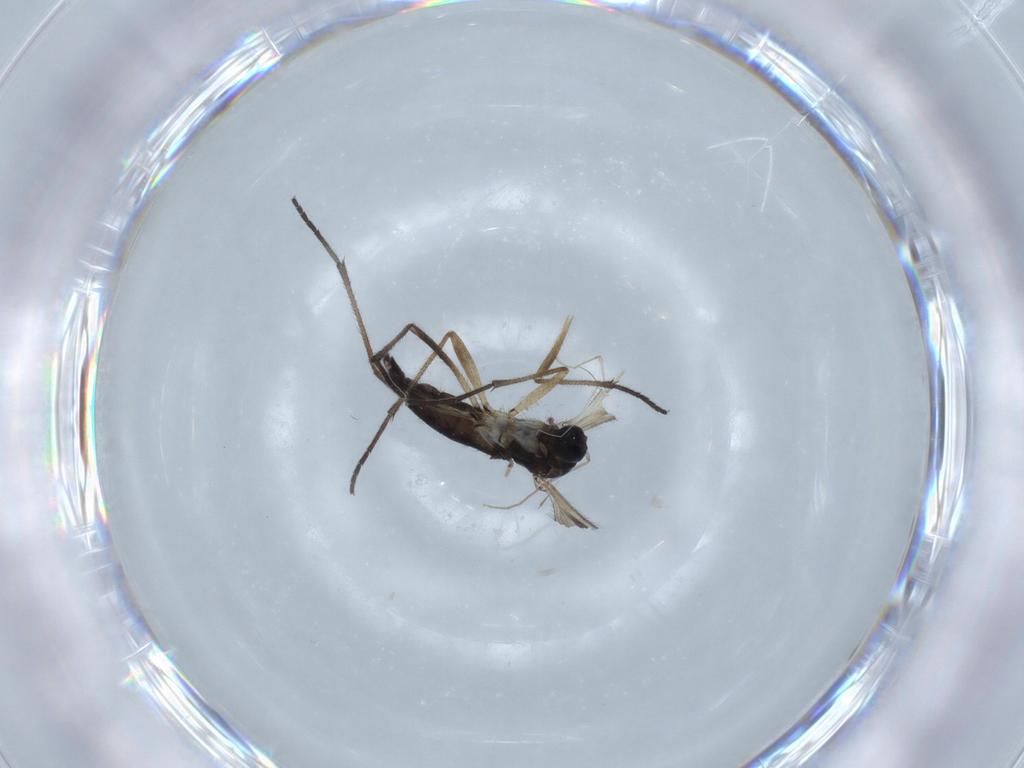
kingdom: Animalia
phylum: Arthropoda
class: Insecta
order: Diptera
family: Sciaridae
